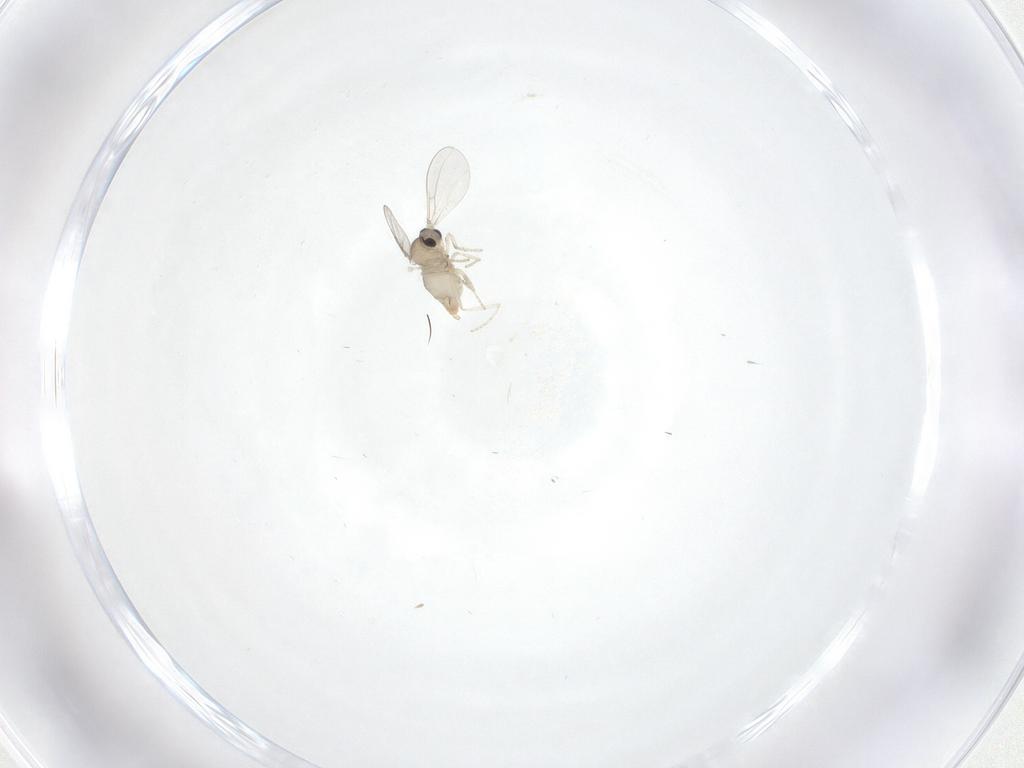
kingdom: Animalia
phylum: Arthropoda
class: Insecta
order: Diptera
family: Cecidomyiidae
